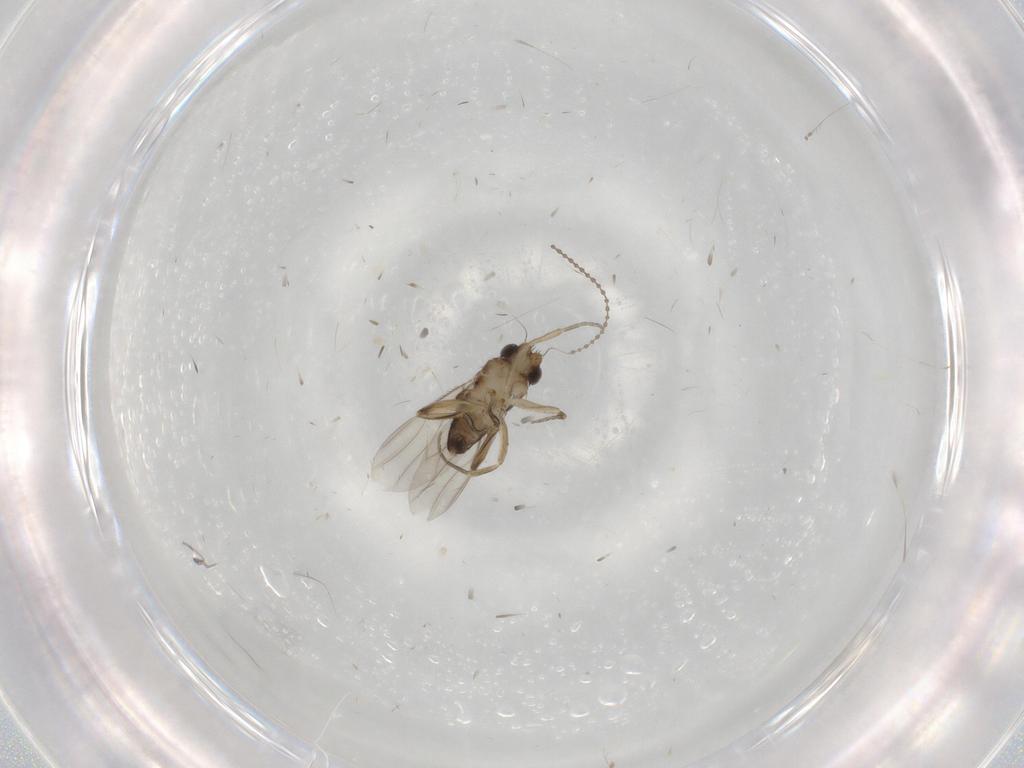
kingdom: Animalia
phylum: Arthropoda
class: Insecta
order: Diptera
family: Phoridae
